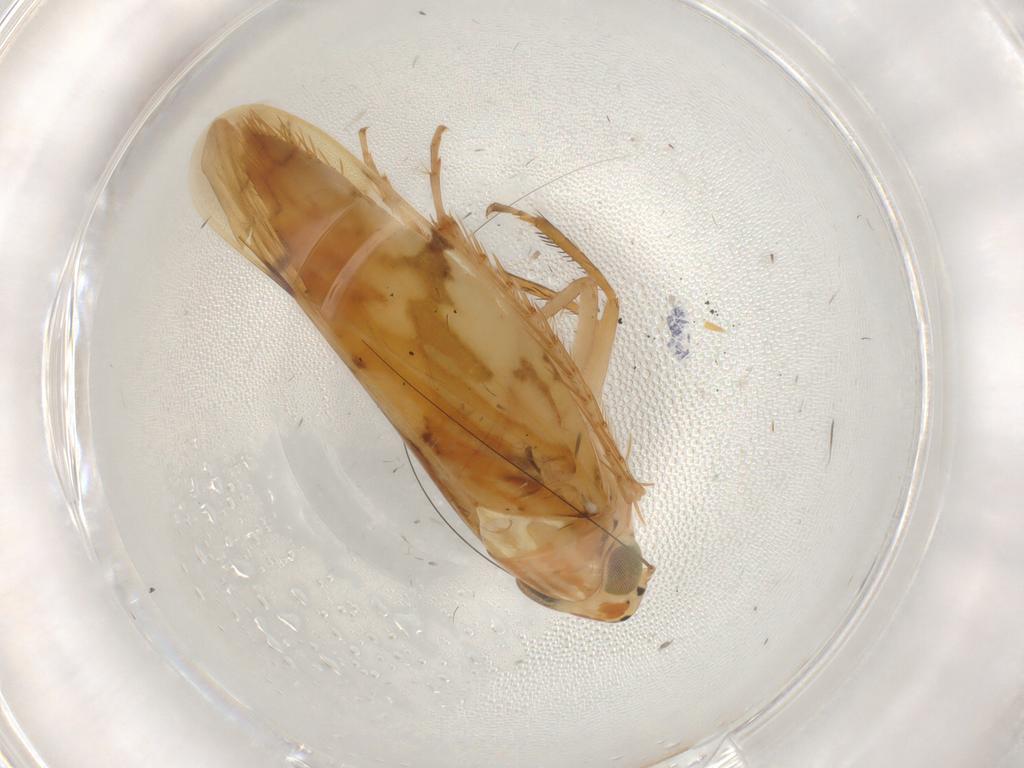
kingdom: Animalia
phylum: Arthropoda
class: Insecta
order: Hemiptera
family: Cicadellidae
